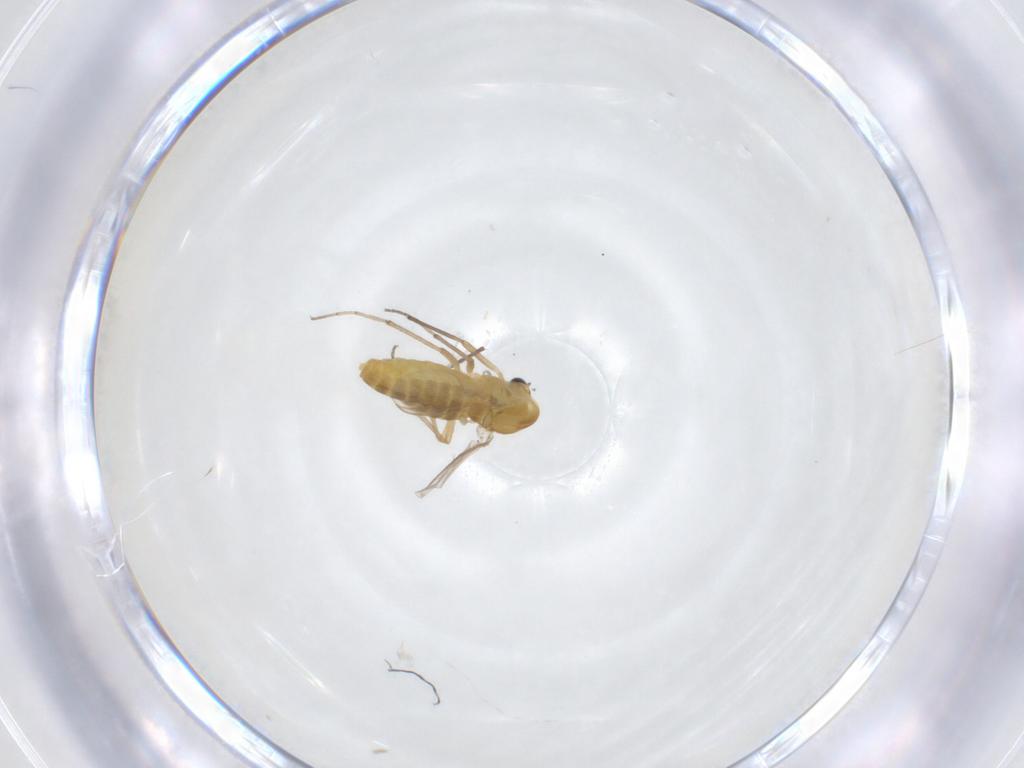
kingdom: Animalia
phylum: Arthropoda
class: Insecta
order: Diptera
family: Chironomidae
